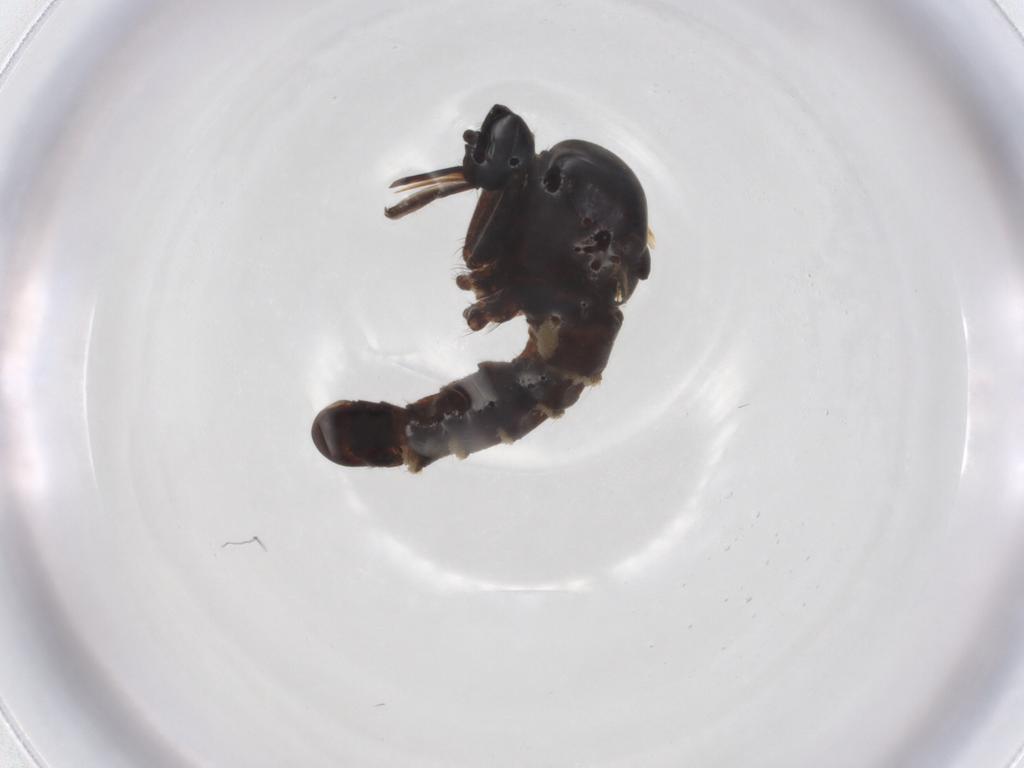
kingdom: Animalia
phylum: Arthropoda
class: Insecta
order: Diptera
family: Empididae
